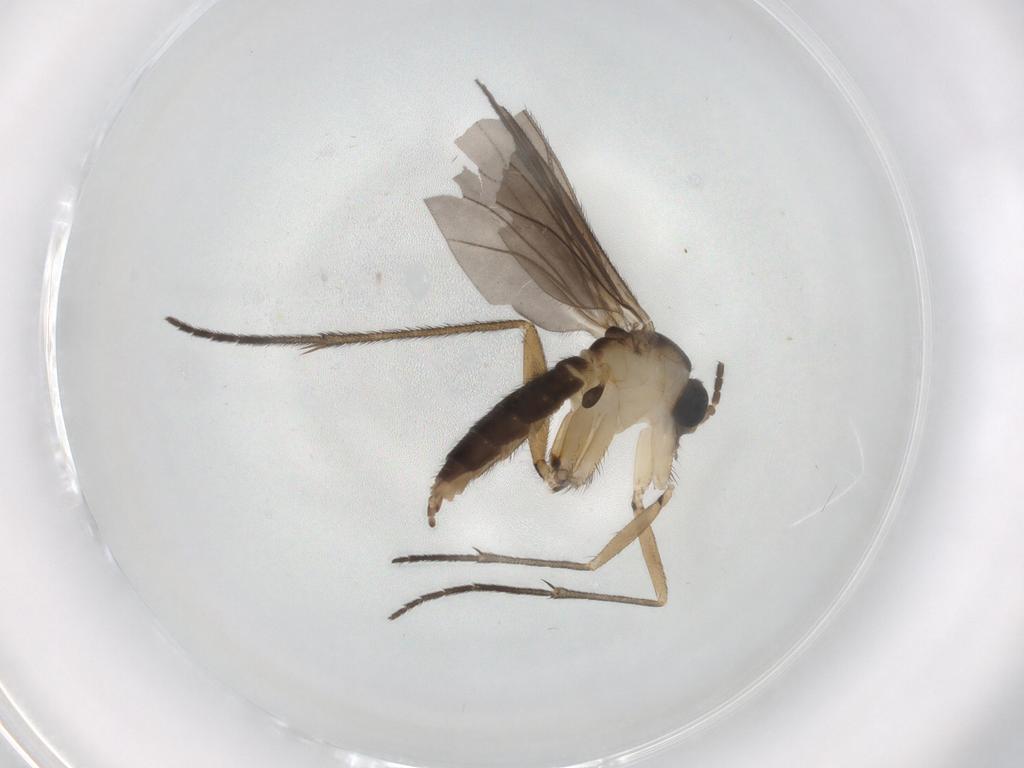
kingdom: Animalia
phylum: Arthropoda
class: Insecta
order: Diptera
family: Sciaridae
